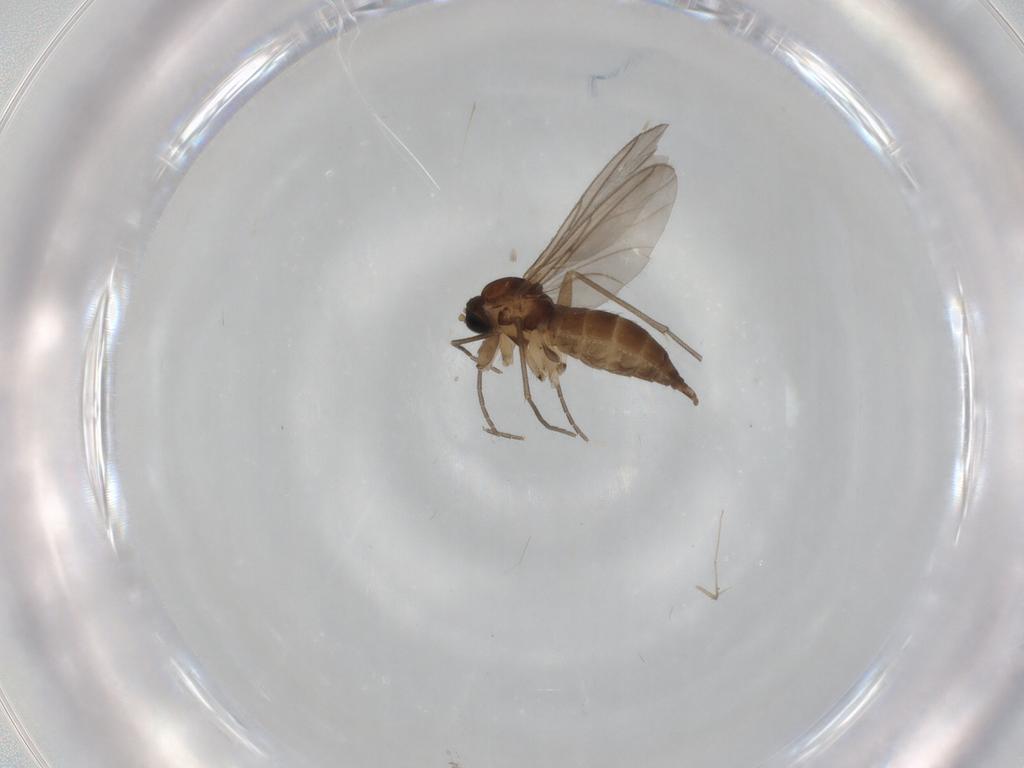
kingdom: Animalia
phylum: Arthropoda
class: Insecta
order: Diptera
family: Sciaridae
